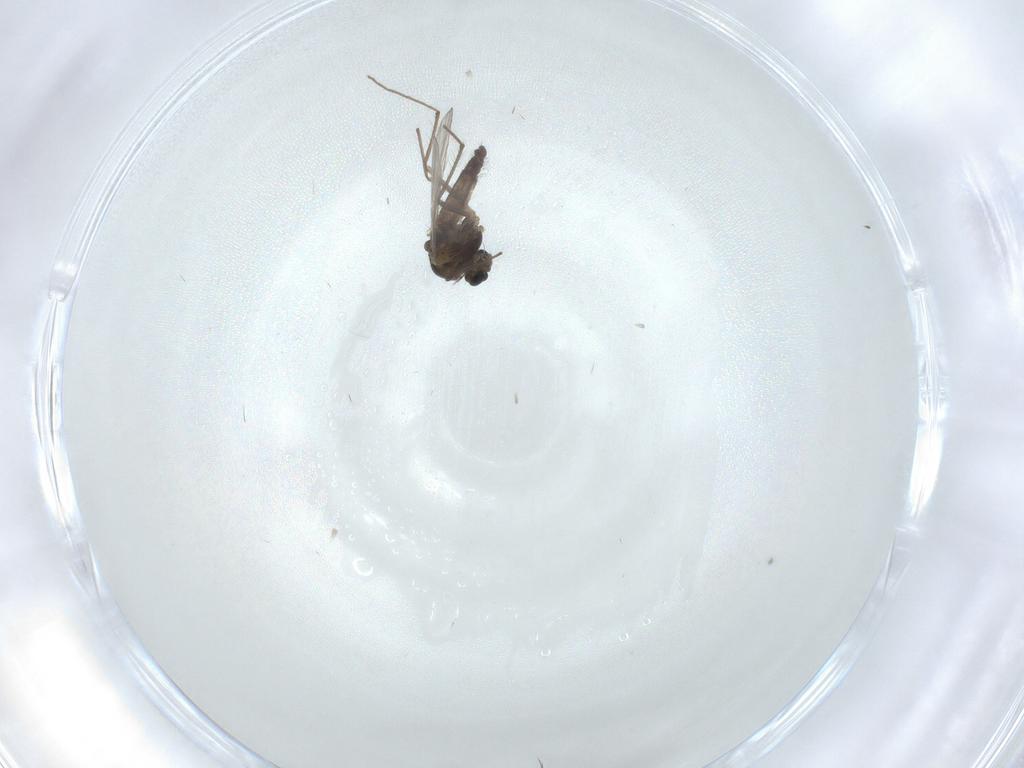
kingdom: Animalia
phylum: Arthropoda
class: Insecta
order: Diptera
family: Chironomidae
